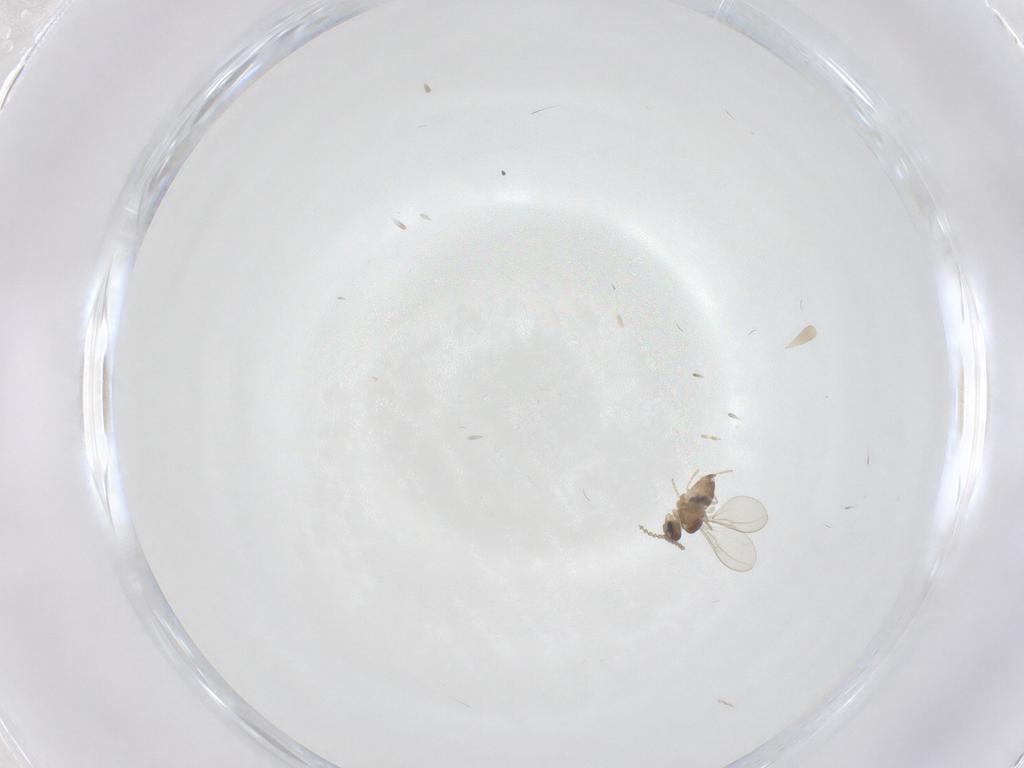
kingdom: Animalia
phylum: Arthropoda
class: Insecta
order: Diptera
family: Cecidomyiidae
